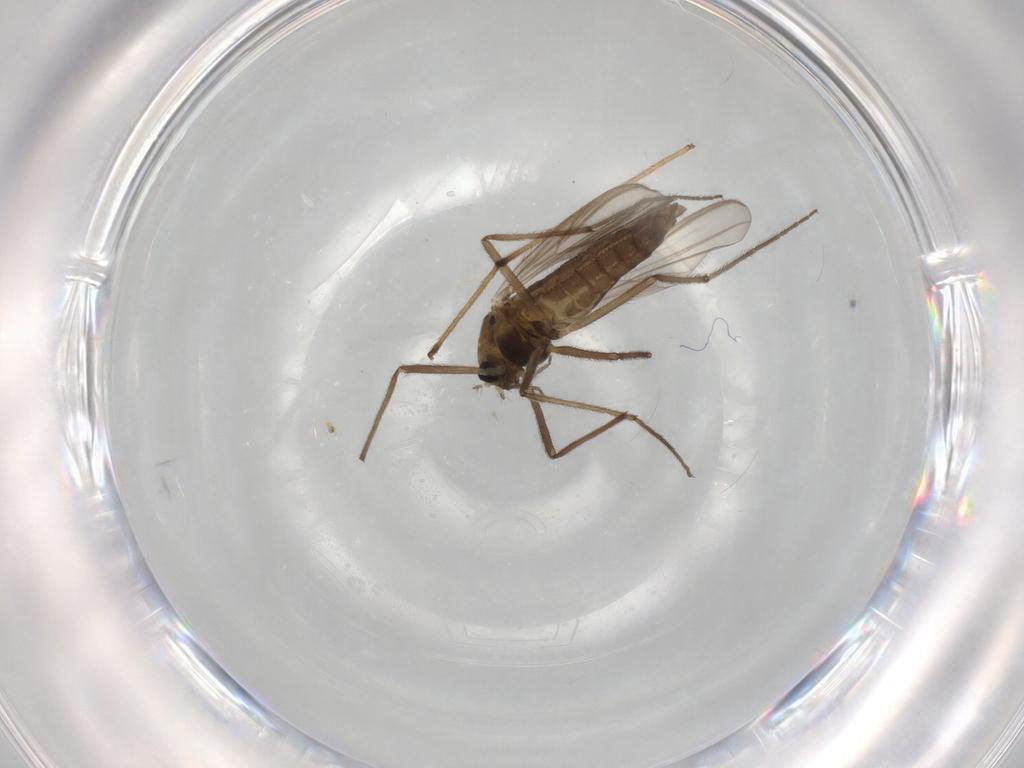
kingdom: Animalia
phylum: Arthropoda
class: Insecta
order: Diptera
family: Chironomidae
